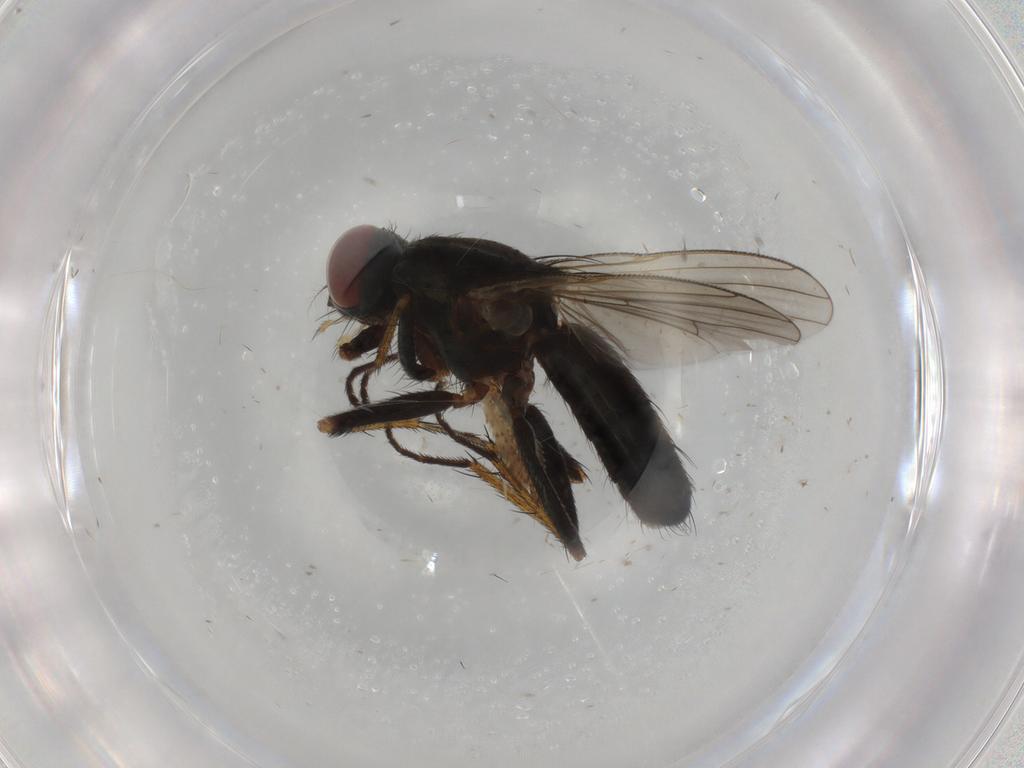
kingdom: Animalia
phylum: Arthropoda
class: Insecta
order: Diptera
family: Muscidae
